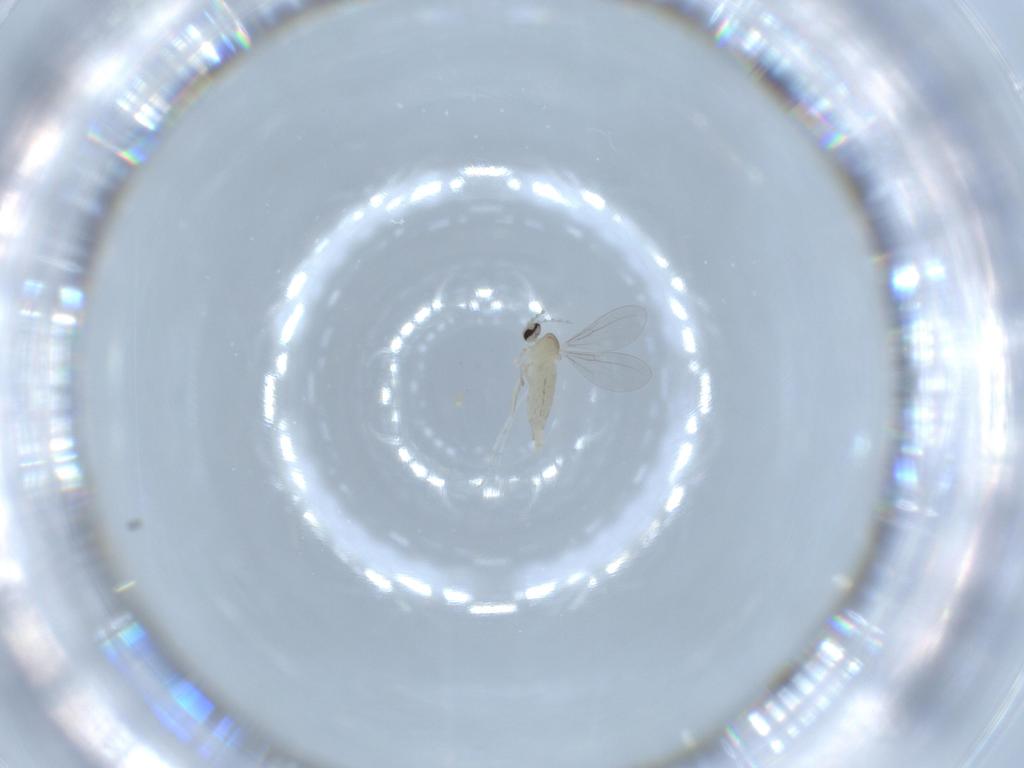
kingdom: Animalia
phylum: Arthropoda
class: Insecta
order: Diptera
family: Cecidomyiidae
